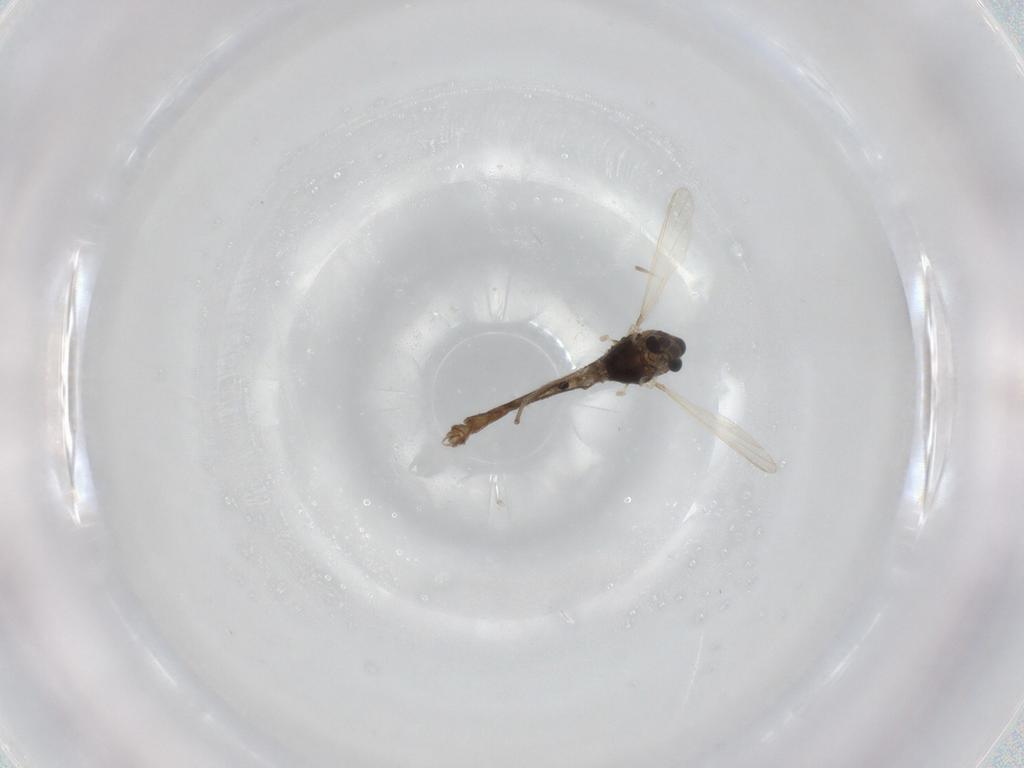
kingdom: Animalia
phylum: Arthropoda
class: Insecta
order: Diptera
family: Chironomidae
